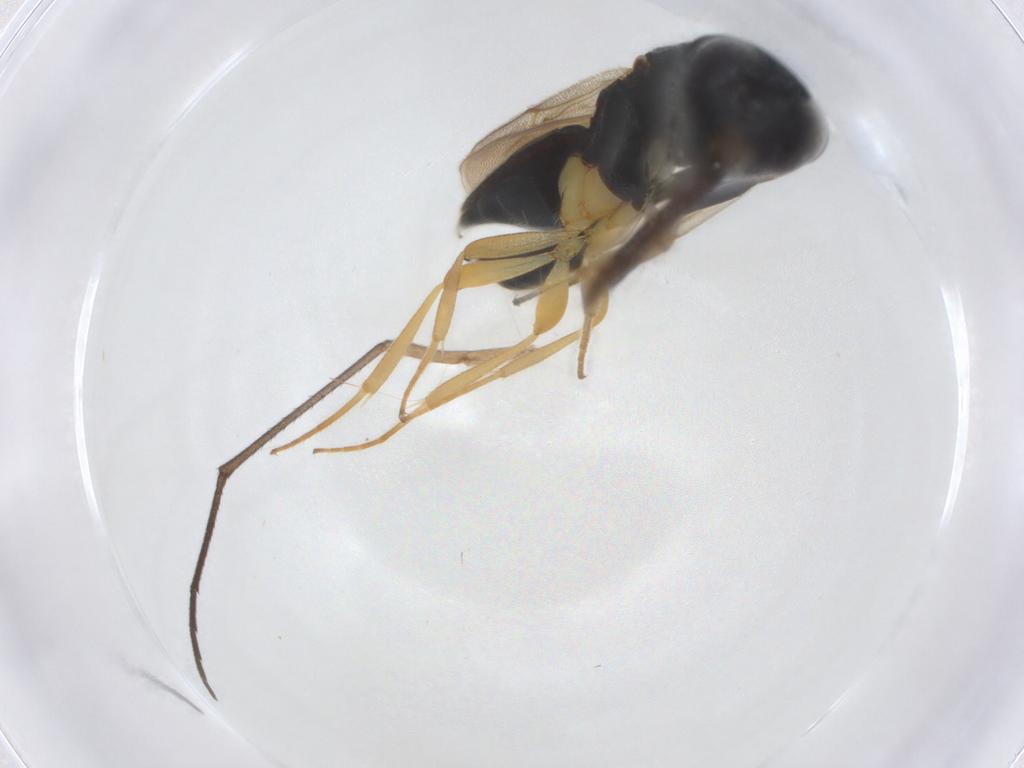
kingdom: Animalia
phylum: Arthropoda
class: Insecta
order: Diptera
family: Sciaridae
